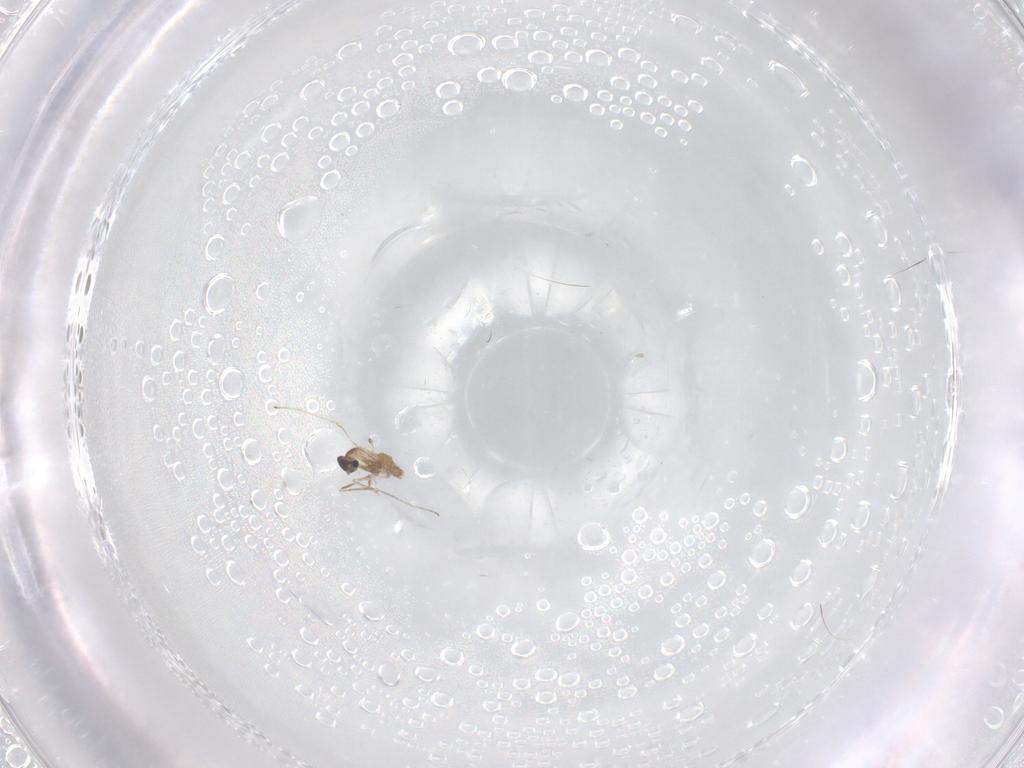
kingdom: Animalia
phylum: Arthropoda
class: Insecta
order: Diptera
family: Cecidomyiidae
